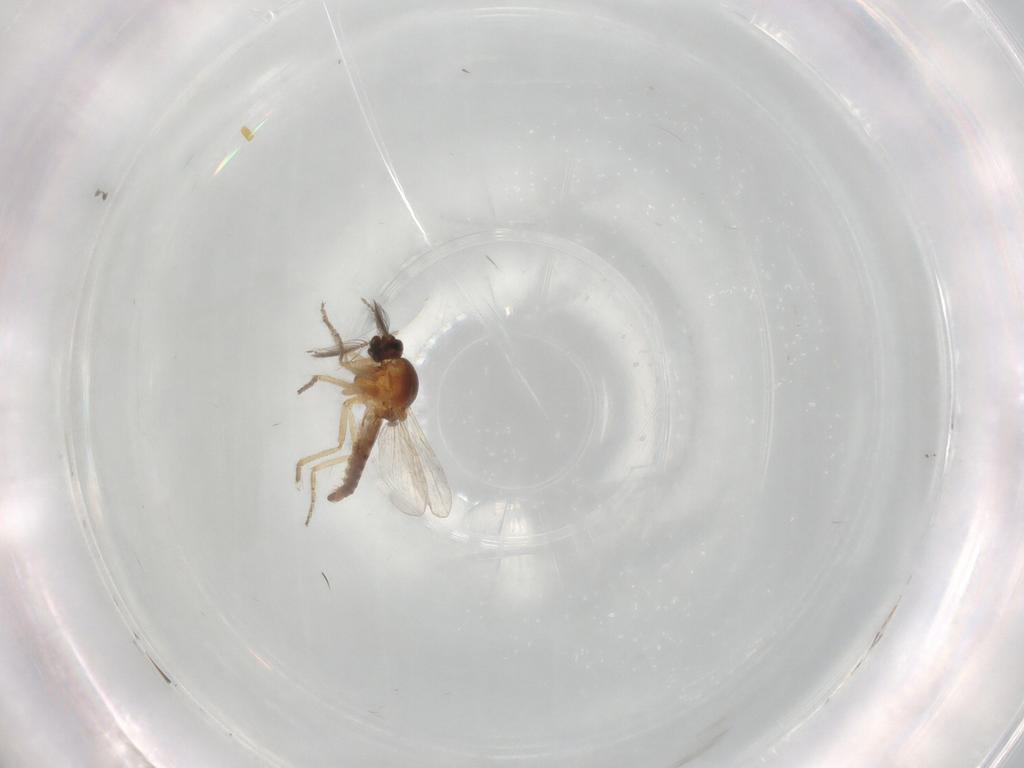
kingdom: Animalia
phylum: Arthropoda
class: Insecta
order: Diptera
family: Ceratopogonidae
